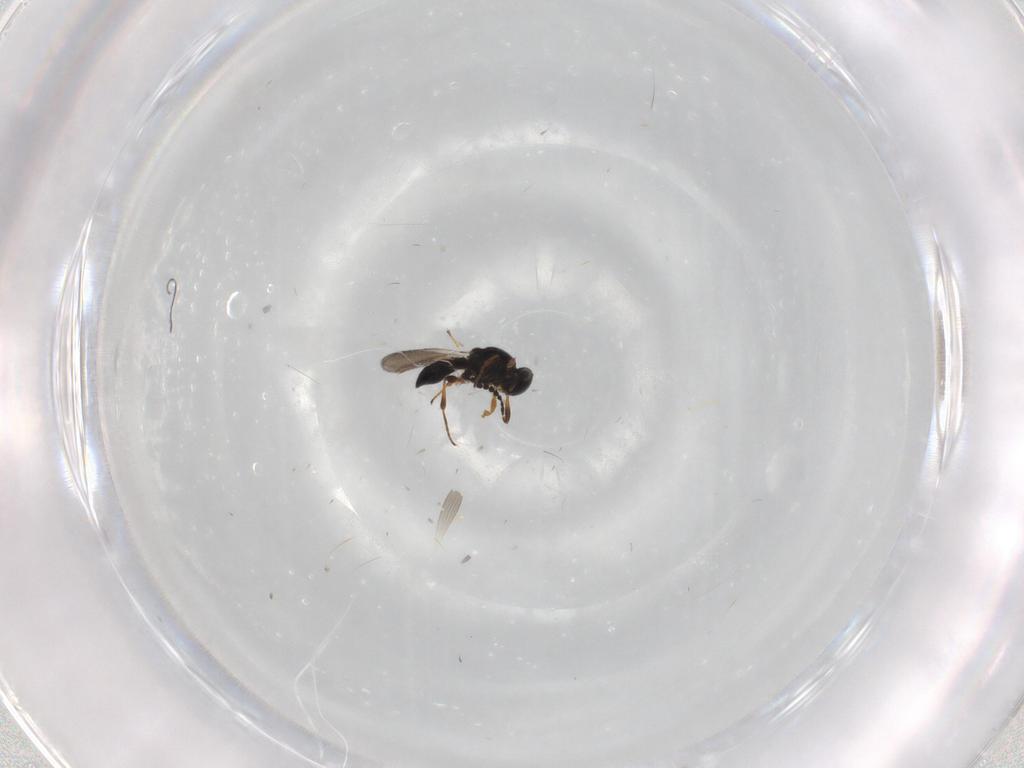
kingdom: Animalia
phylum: Arthropoda
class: Insecta
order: Hymenoptera
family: Platygastridae
